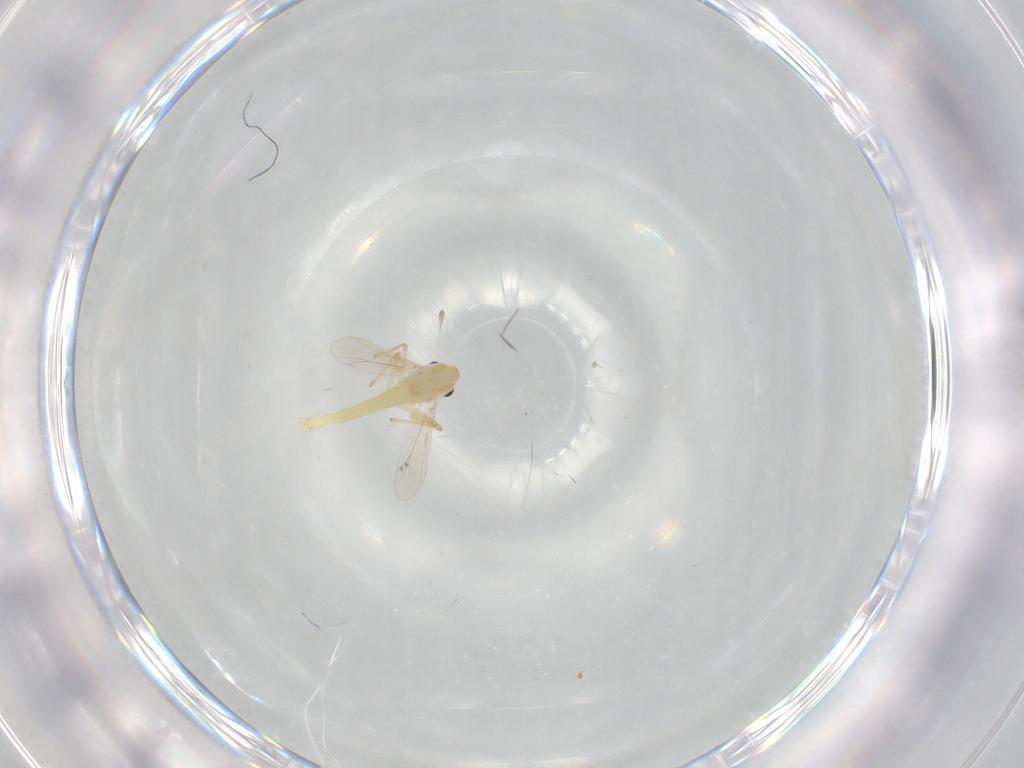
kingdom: Animalia
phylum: Arthropoda
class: Insecta
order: Diptera
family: Chironomidae
